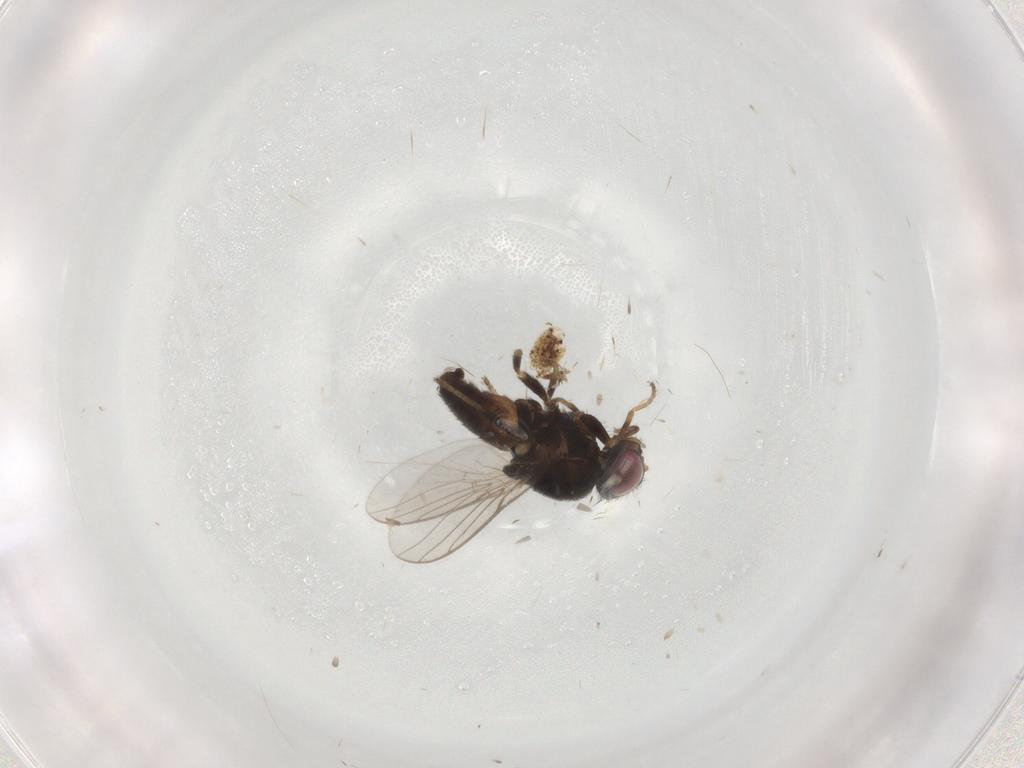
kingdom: Animalia
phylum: Arthropoda
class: Insecta
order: Diptera
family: Chloropidae
